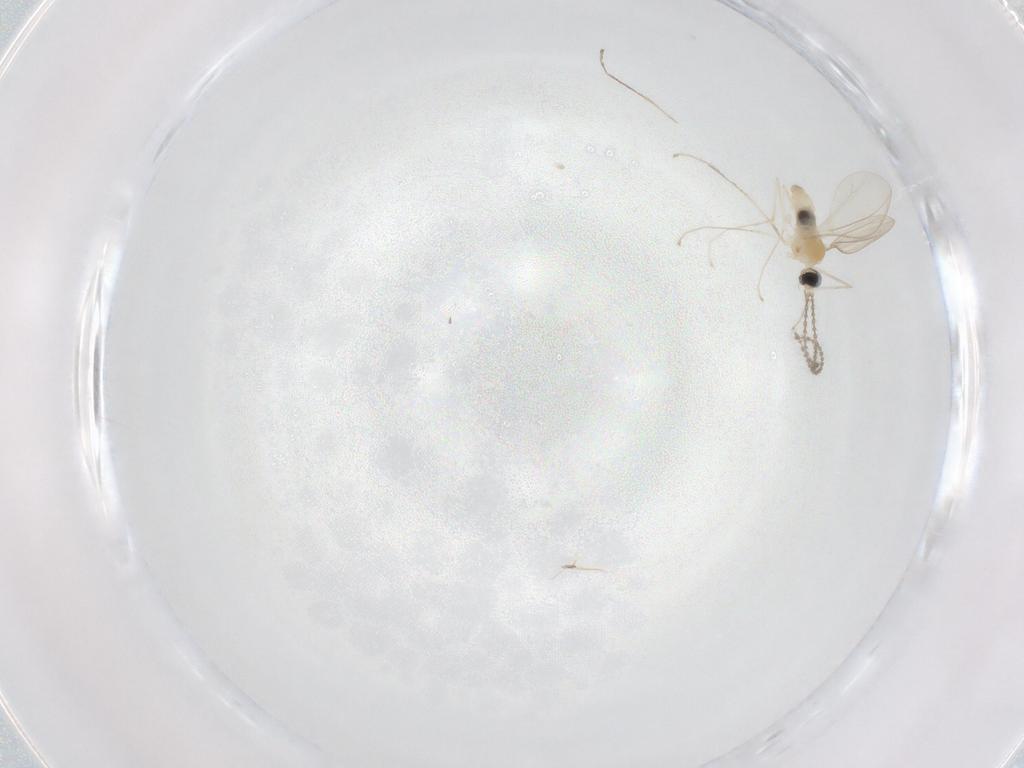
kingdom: Animalia
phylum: Arthropoda
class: Insecta
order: Diptera
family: Cecidomyiidae
